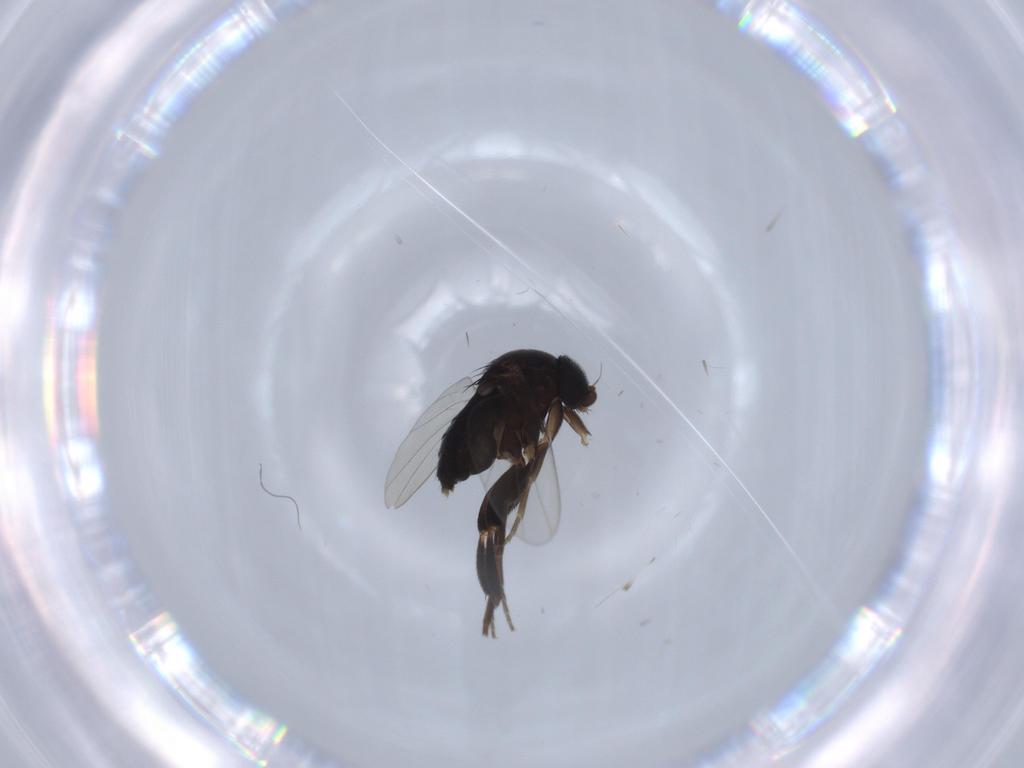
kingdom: Animalia
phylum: Arthropoda
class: Insecta
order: Diptera
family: Phoridae
